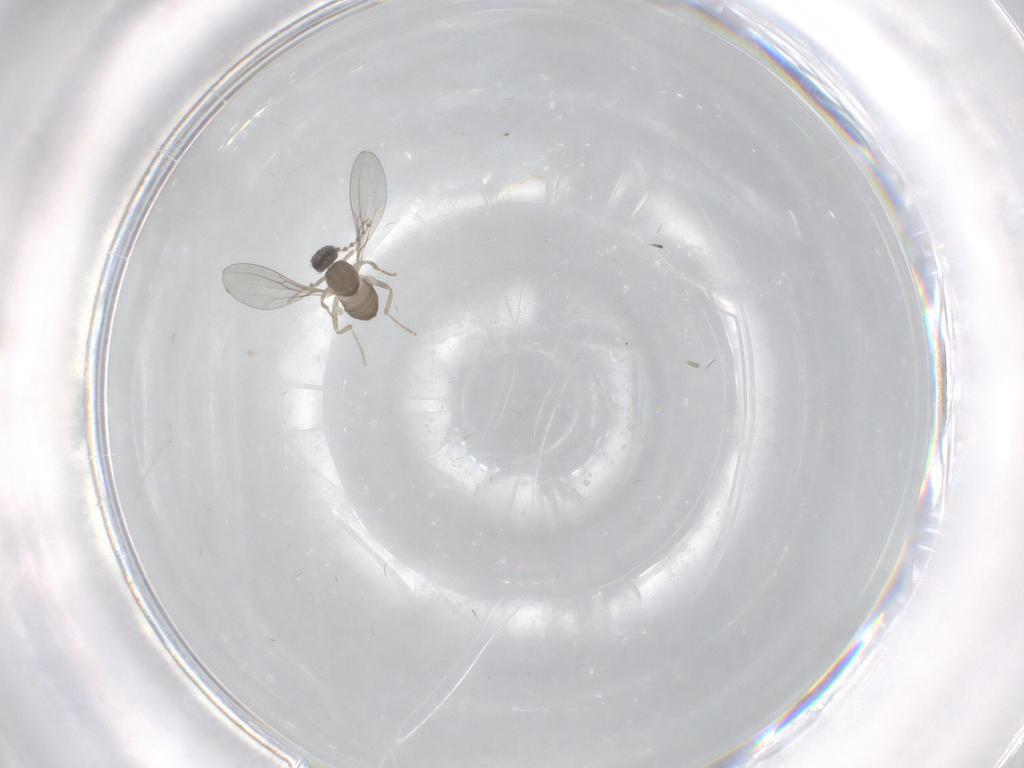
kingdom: Animalia
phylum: Arthropoda
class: Insecta
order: Diptera
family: Cecidomyiidae
